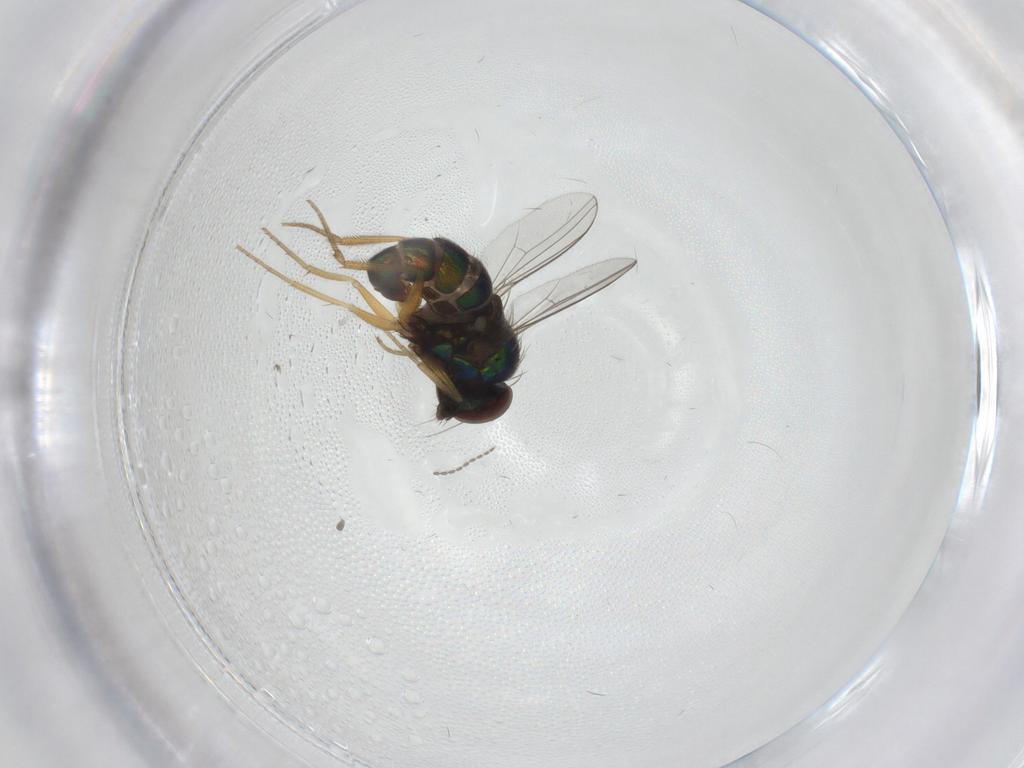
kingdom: Animalia
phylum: Arthropoda
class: Insecta
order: Diptera
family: Dolichopodidae
